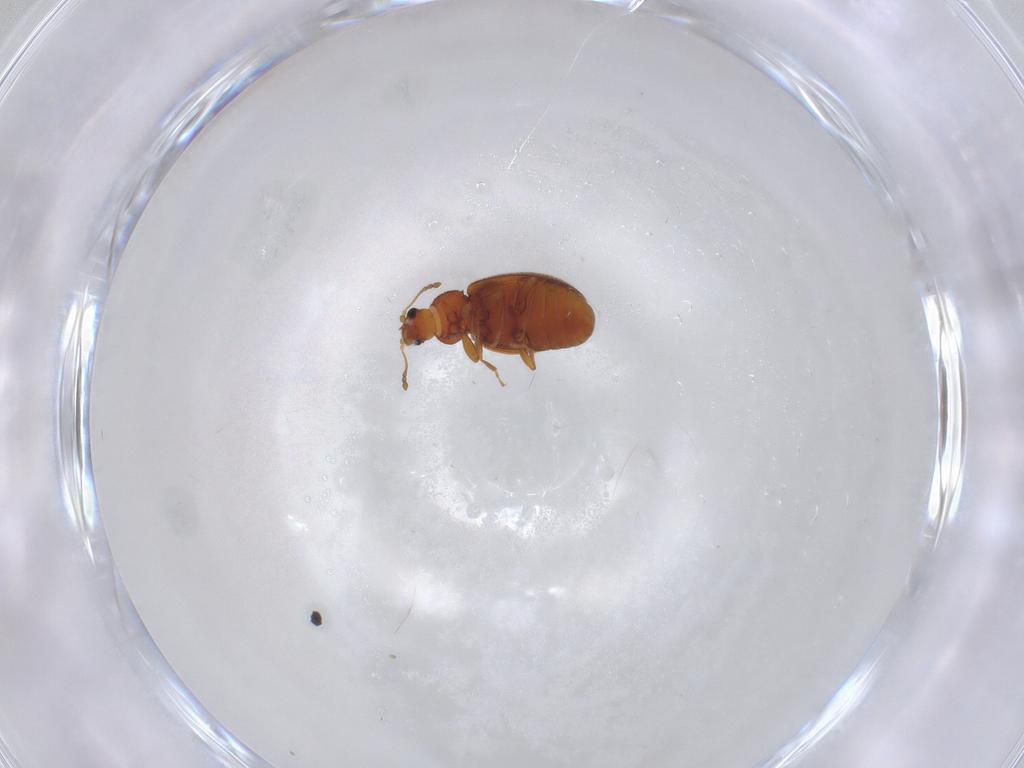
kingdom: Animalia
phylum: Arthropoda
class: Insecta
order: Coleoptera
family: Latridiidae
